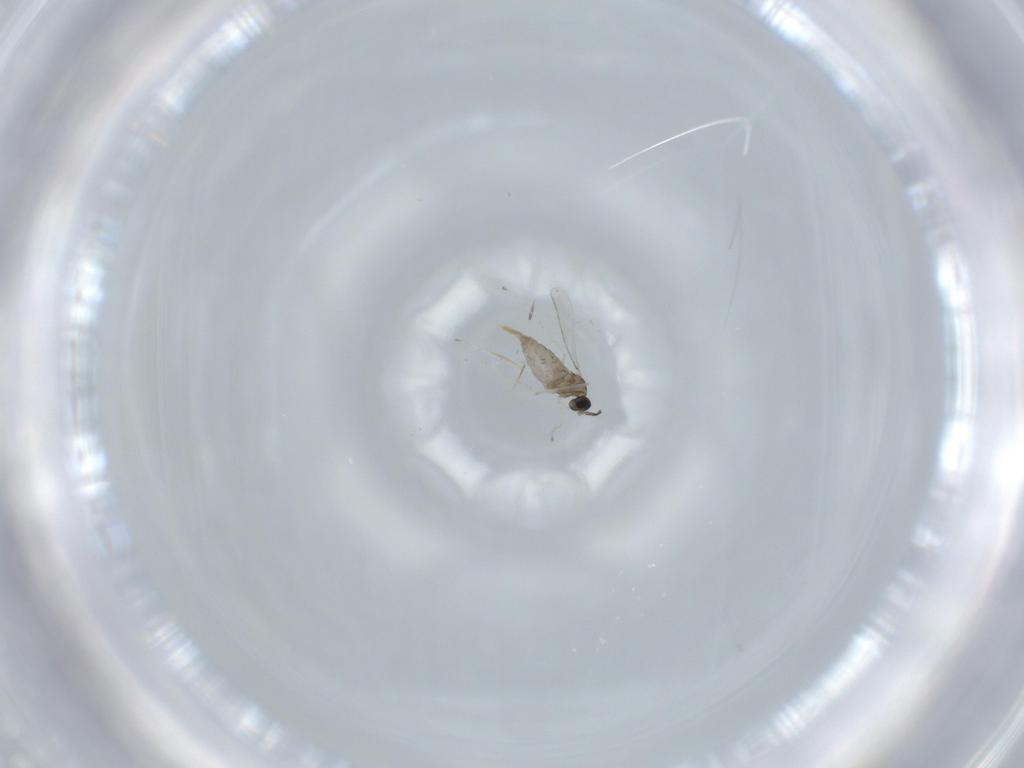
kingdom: Animalia
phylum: Arthropoda
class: Insecta
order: Diptera
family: Cecidomyiidae
